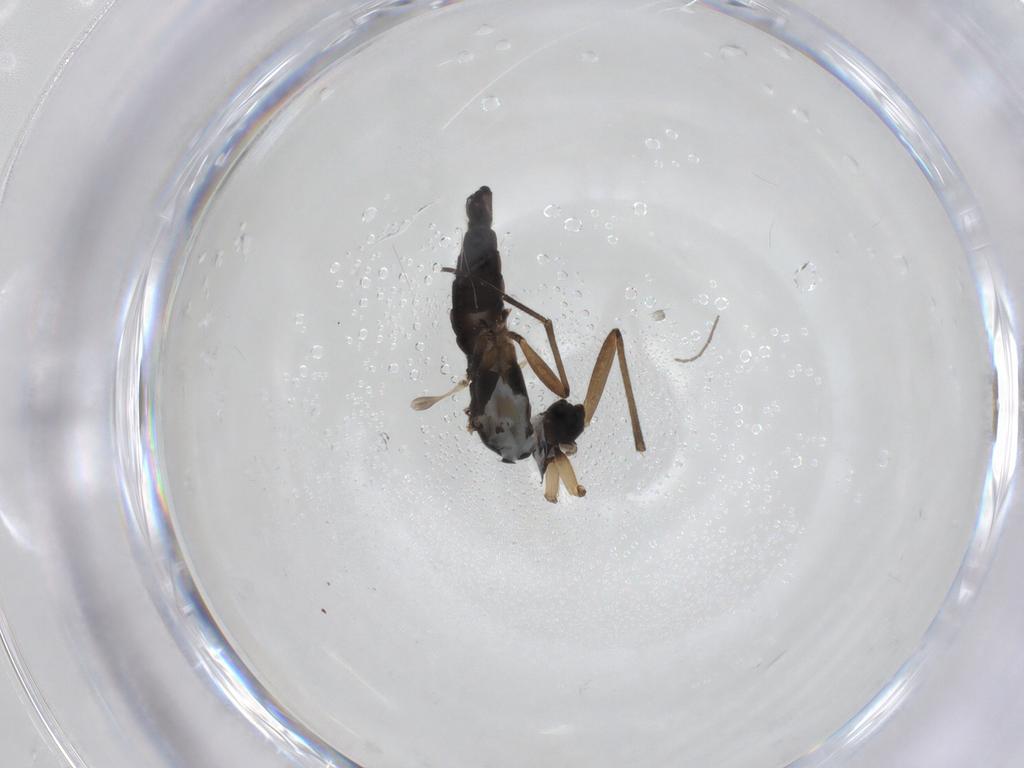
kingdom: Animalia
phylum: Arthropoda
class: Insecta
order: Diptera
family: Sciaridae
